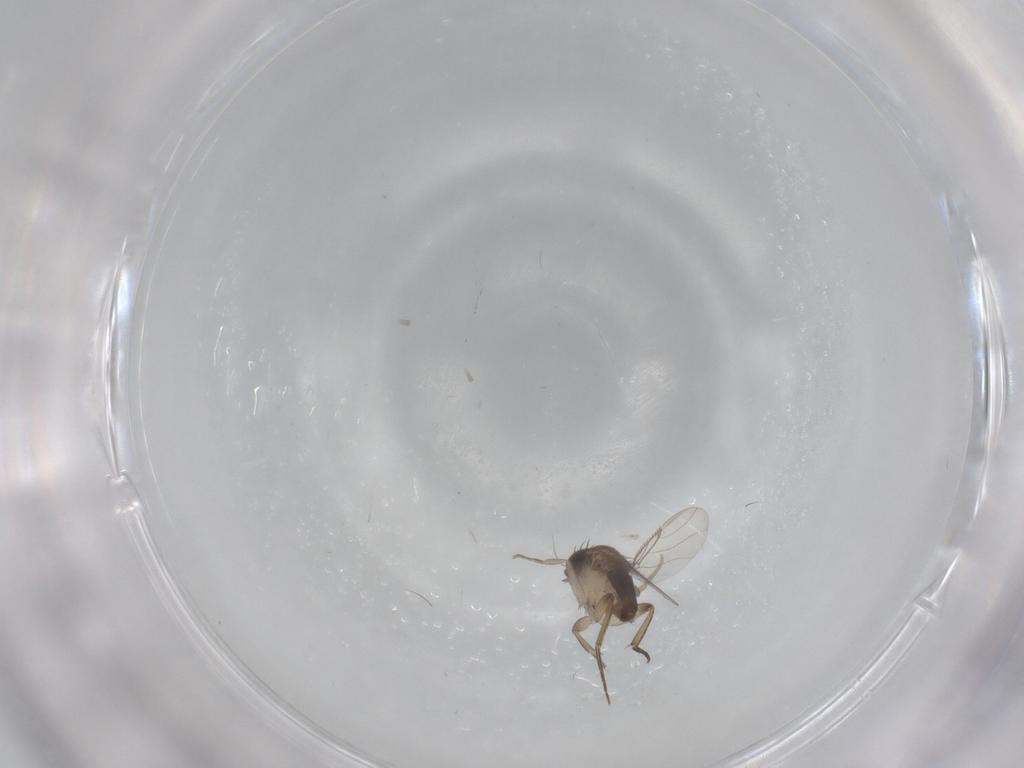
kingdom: Animalia
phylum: Arthropoda
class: Insecta
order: Diptera
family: Phoridae
